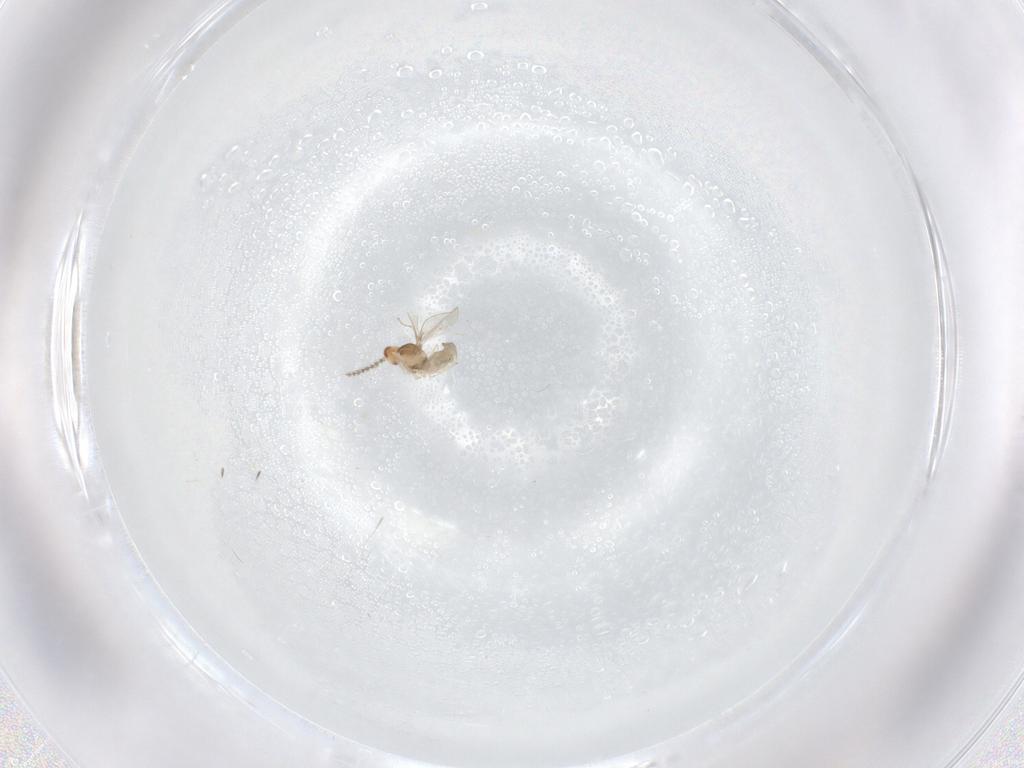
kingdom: Animalia
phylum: Arthropoda
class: Insecta
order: Diptera
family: Cecidomyiidae
